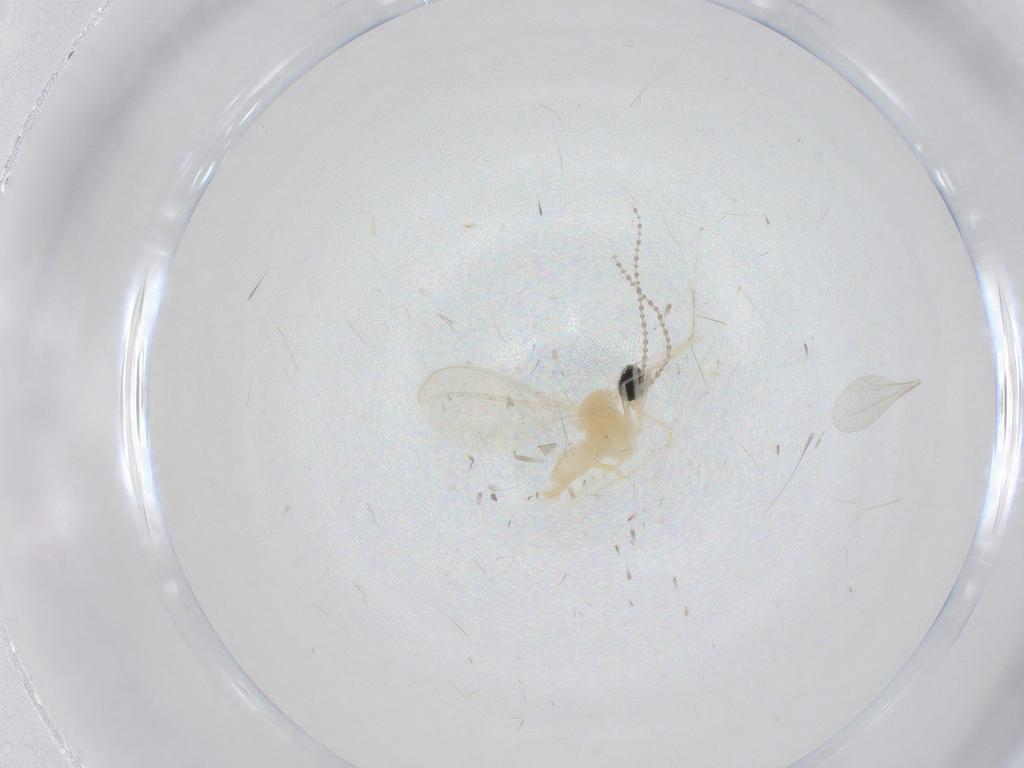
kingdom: Animalia
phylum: Arthropoda
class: Insecta
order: Diptera
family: Cecidomyiidae
